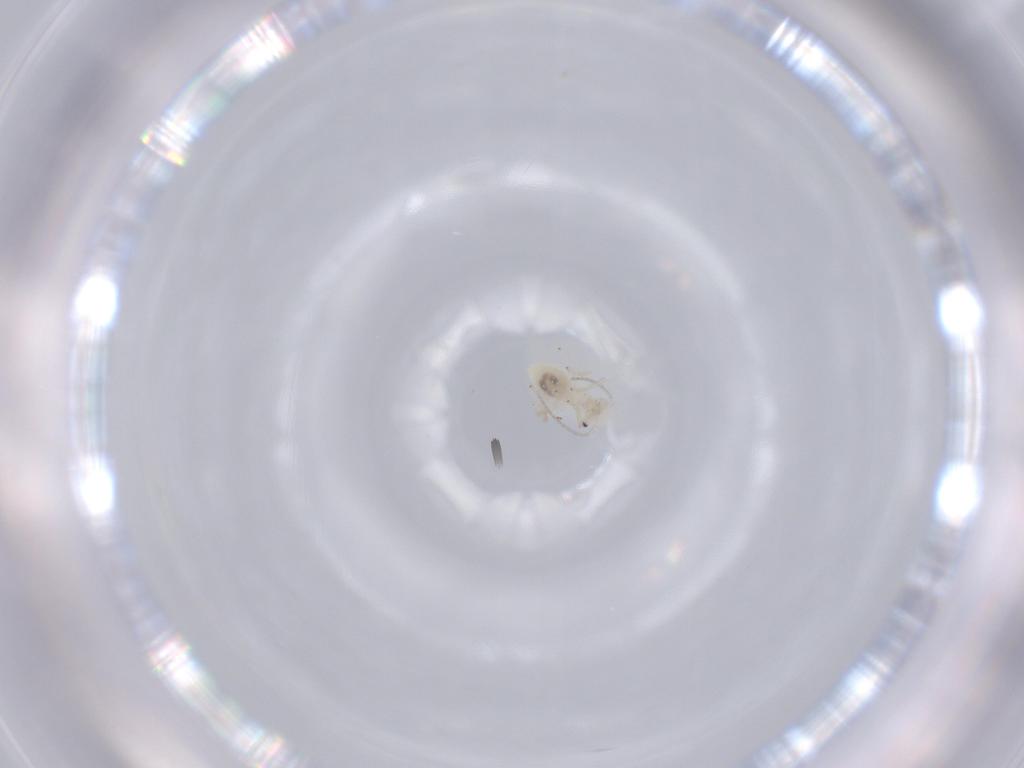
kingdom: Animalia
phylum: Arthropoda
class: Insecta
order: Psocodea
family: Caeciliusidae
